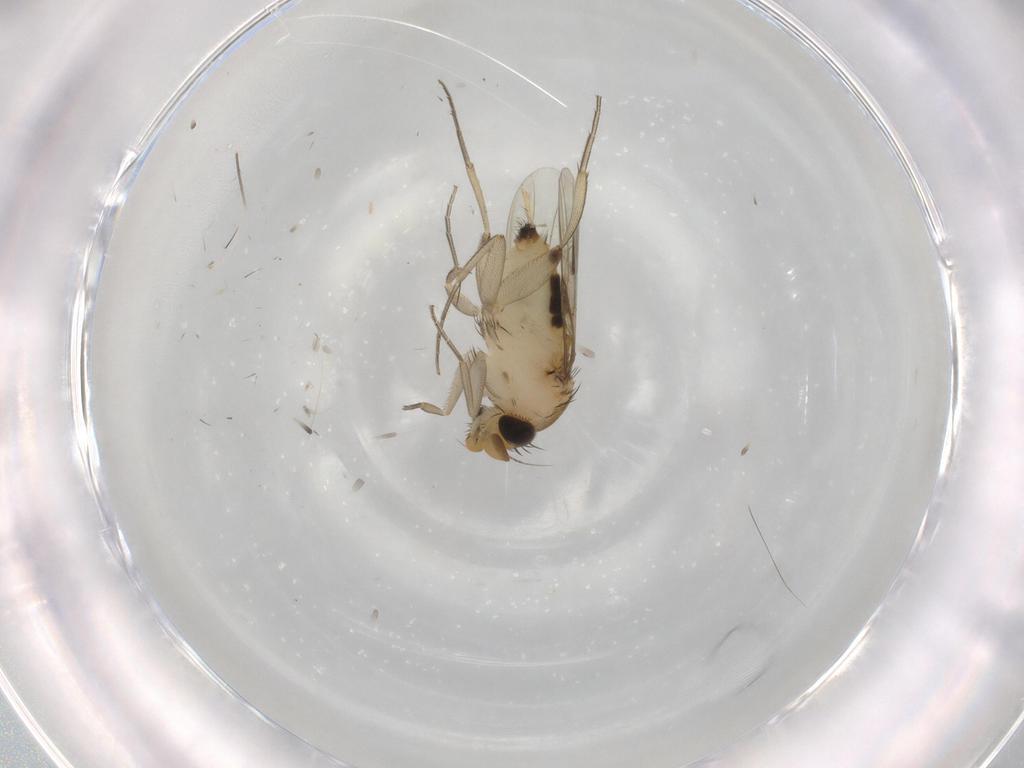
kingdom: Animalia
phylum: Arthropoda
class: Insecta
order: Diptera
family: Phoridae
